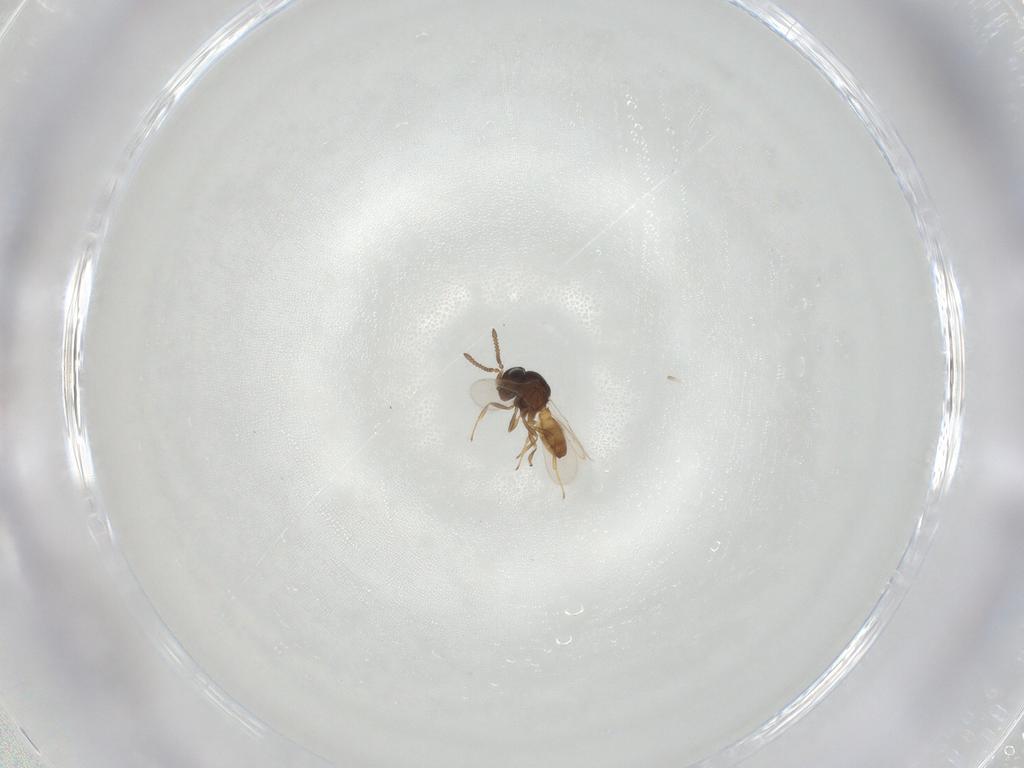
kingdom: Animalia
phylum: Arthropoda
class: Insecta
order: Hymenoptera
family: Scelionidae
